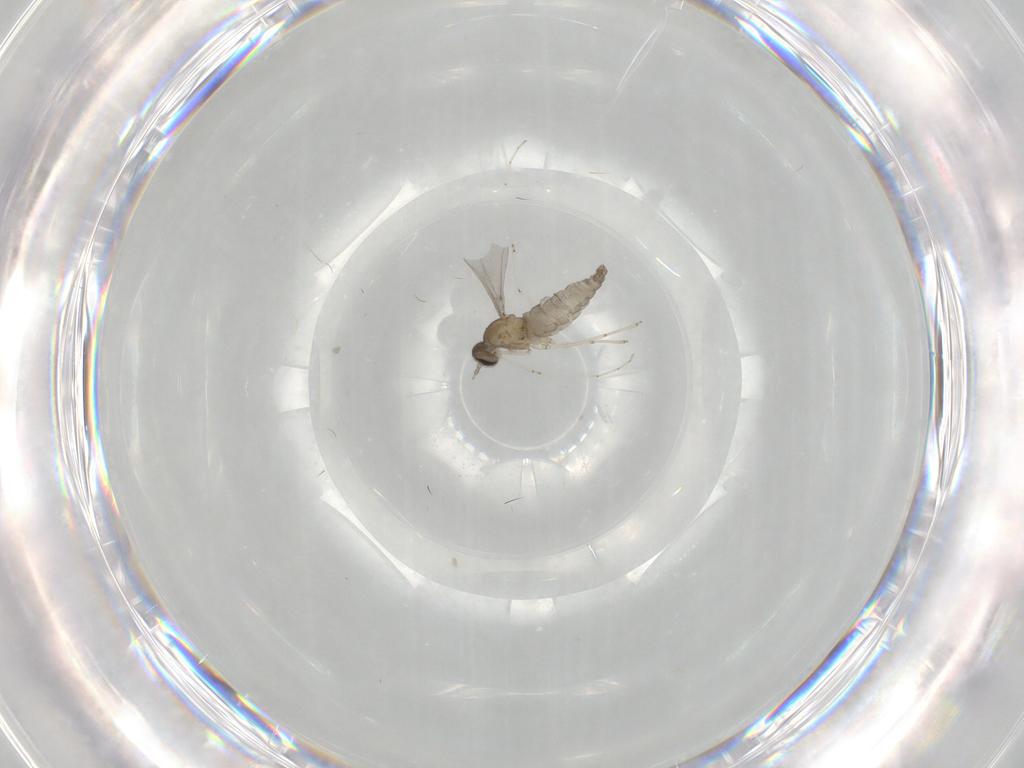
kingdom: Animalia
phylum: Arthropoda
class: Insecta
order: Diptera
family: Cecidomyiidae
